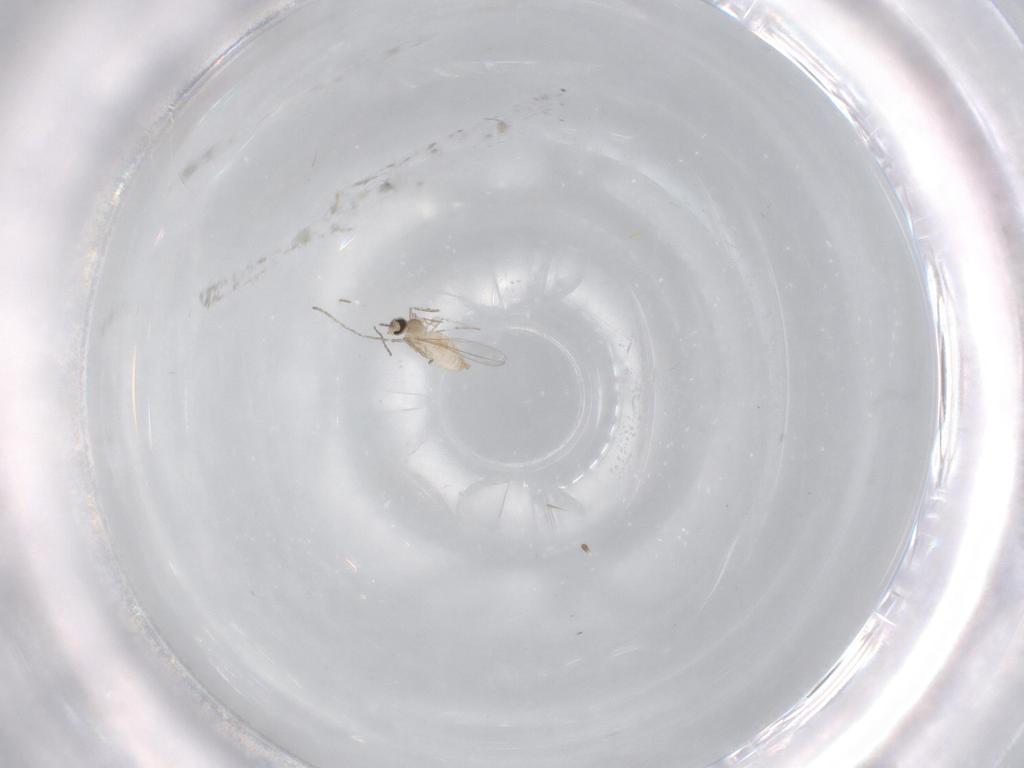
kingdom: Animalia
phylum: Arthropoda
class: Insecta
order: Diptera
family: Cecidomyiidae
